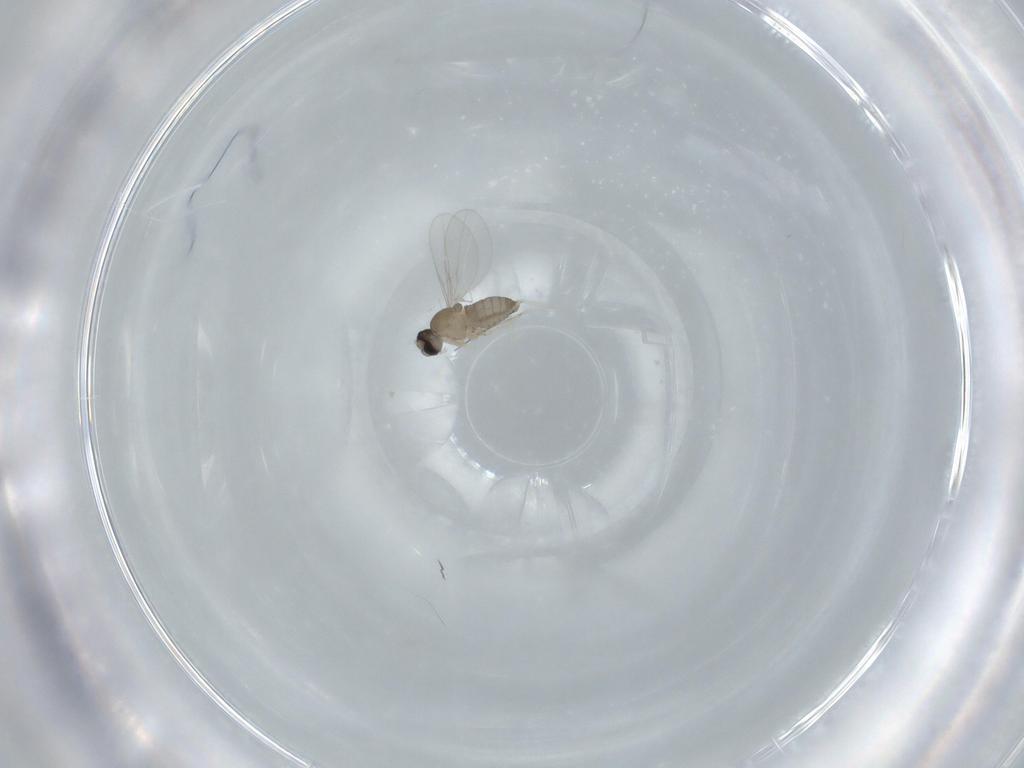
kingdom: Animalia
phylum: Arthropoda
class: Insecta
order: Diptera
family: Cecidomyiidae
